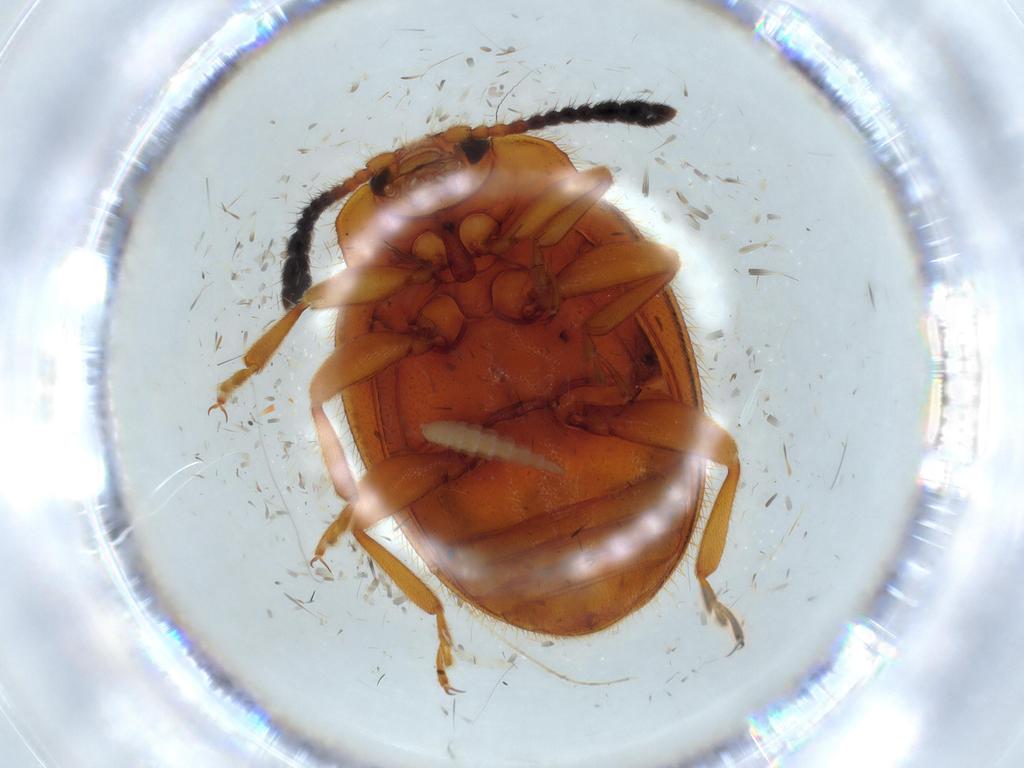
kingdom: Animalia
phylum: Arthropoda
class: Insecta
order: Coleoptera
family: Endomychidae
